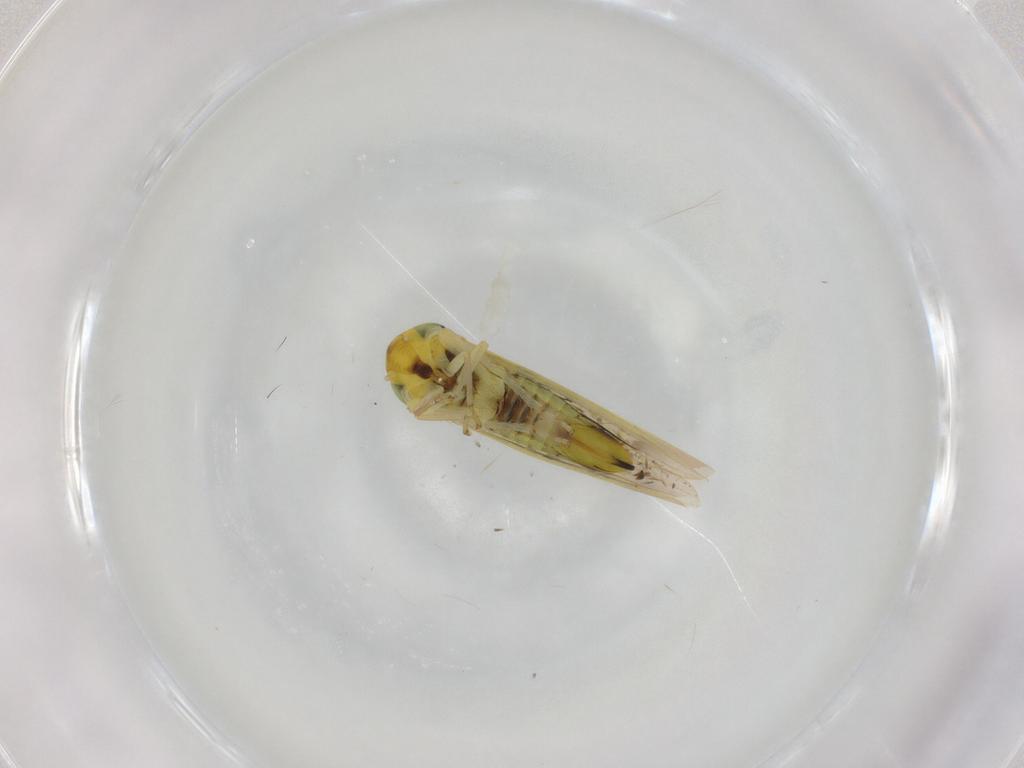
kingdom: Animalia
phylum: Arthropoda
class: Insecta
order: Hemiptera
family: Cicadellidae
